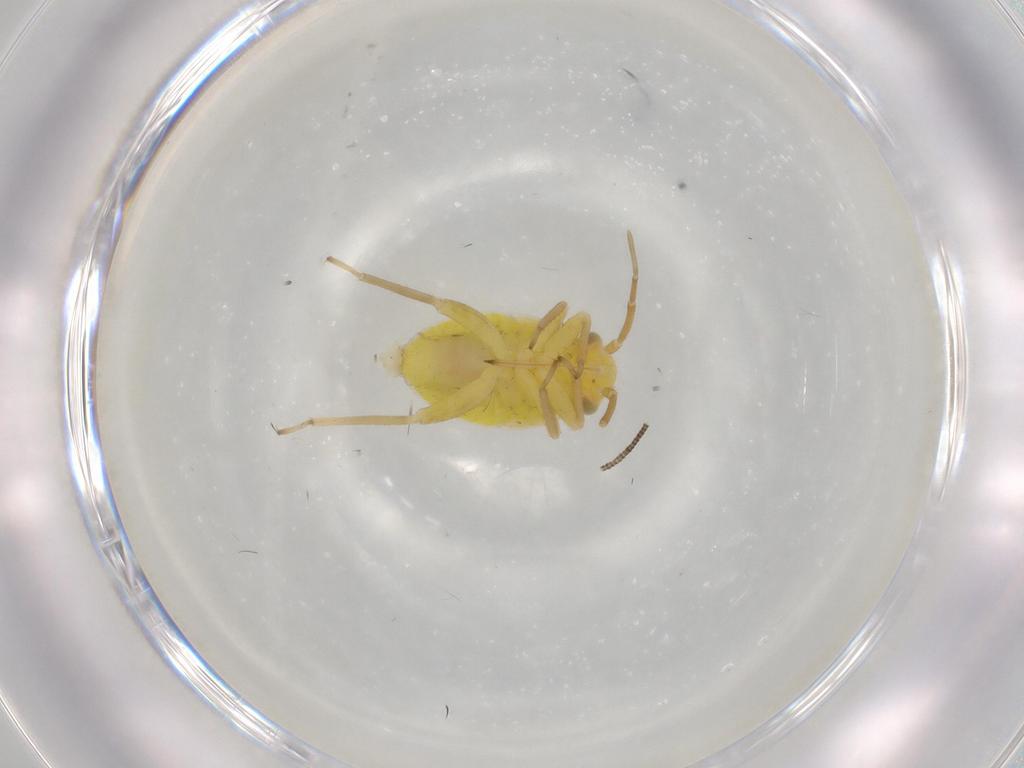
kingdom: Animalia
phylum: Arthropoda
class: Insecta
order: Hemiptera
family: Miridae
